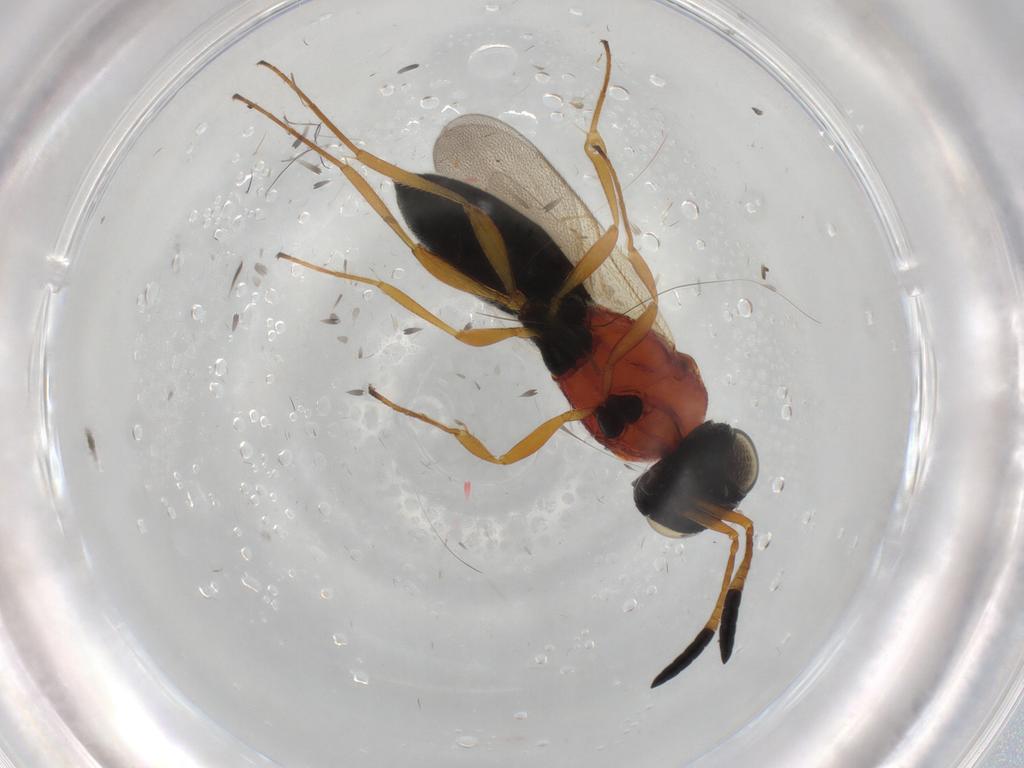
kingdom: Animalia
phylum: Arthropoda
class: Insecta
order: Hymenoptera
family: Scelionidae
